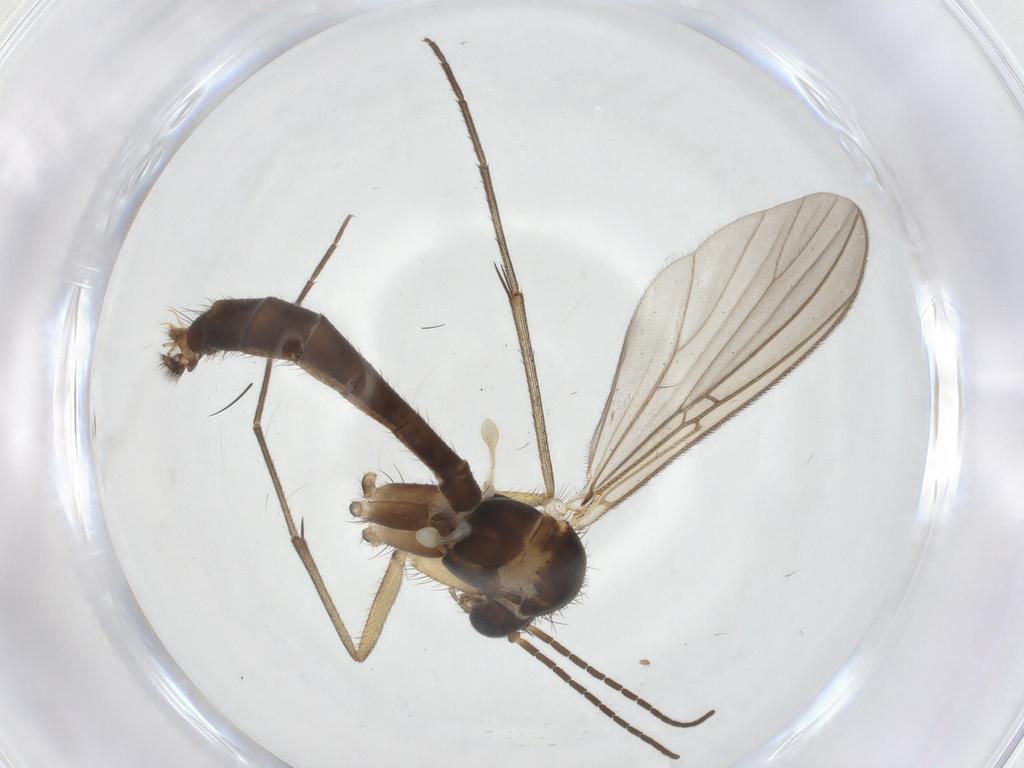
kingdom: Animalia
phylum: Arthropoda
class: Insecta
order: Diptera
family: Mycetophilidae
